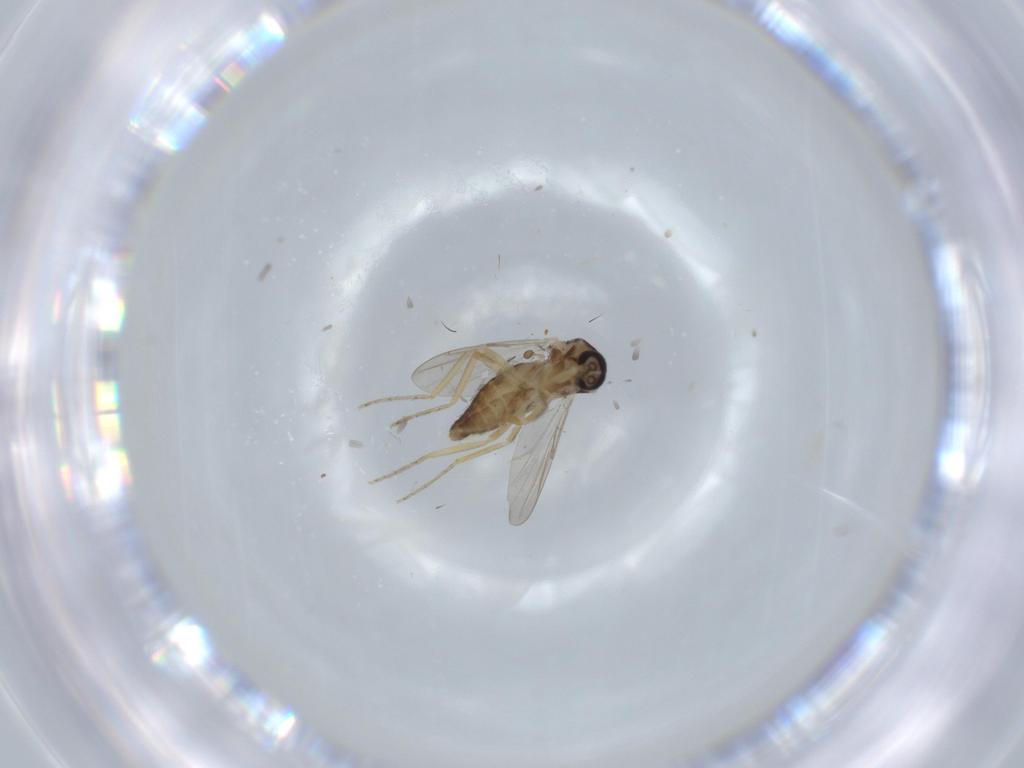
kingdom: Animalia
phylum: Arthropoda
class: Insecta
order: Diptera
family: Ceratopogonidae
